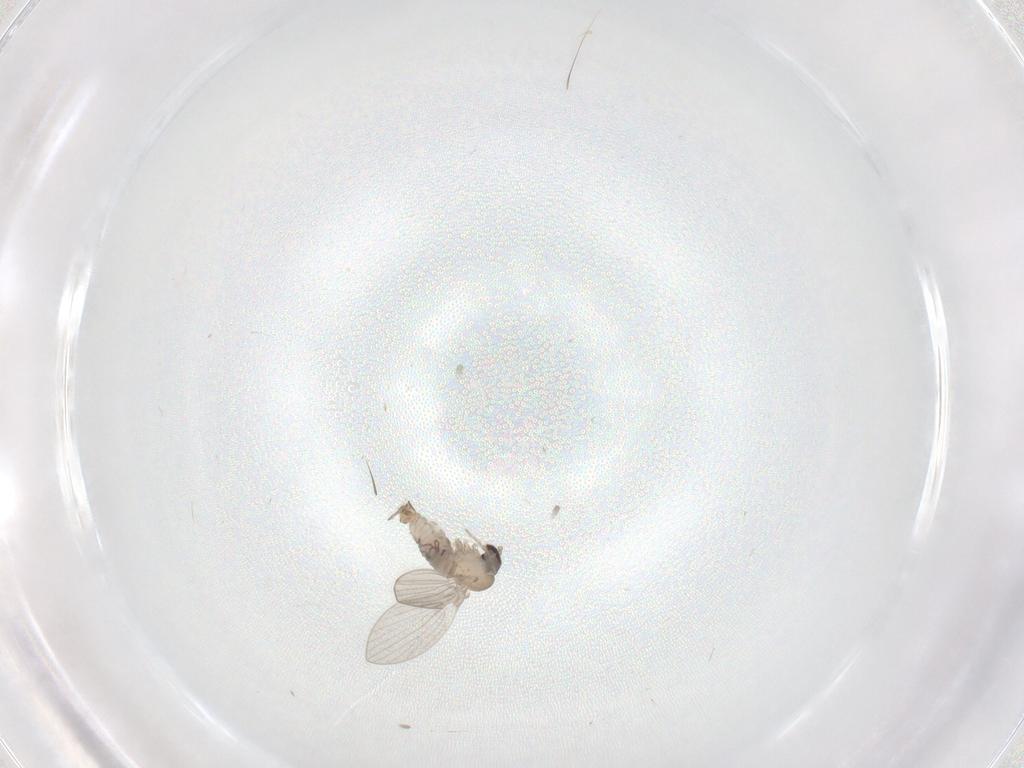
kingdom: Animalia
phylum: Arthropoda
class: Insecta
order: Diptera
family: Psychodidae
